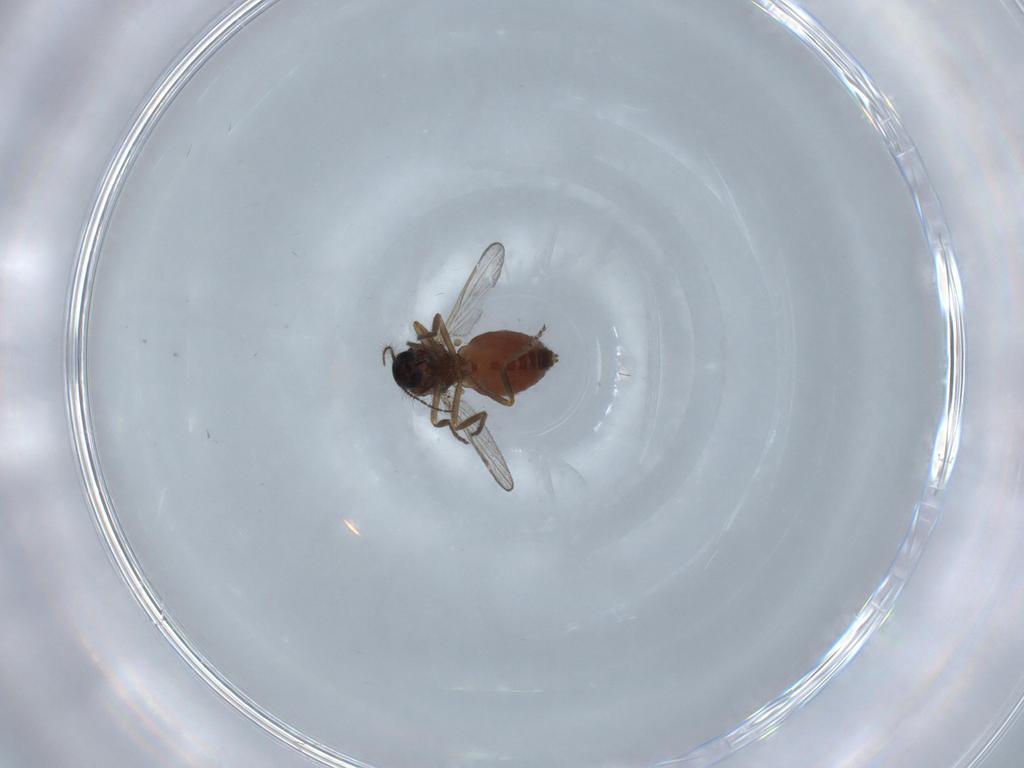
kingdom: Animalia
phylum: Arthropoda
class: Insecta
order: Diptera
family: Ceratopogonidae
